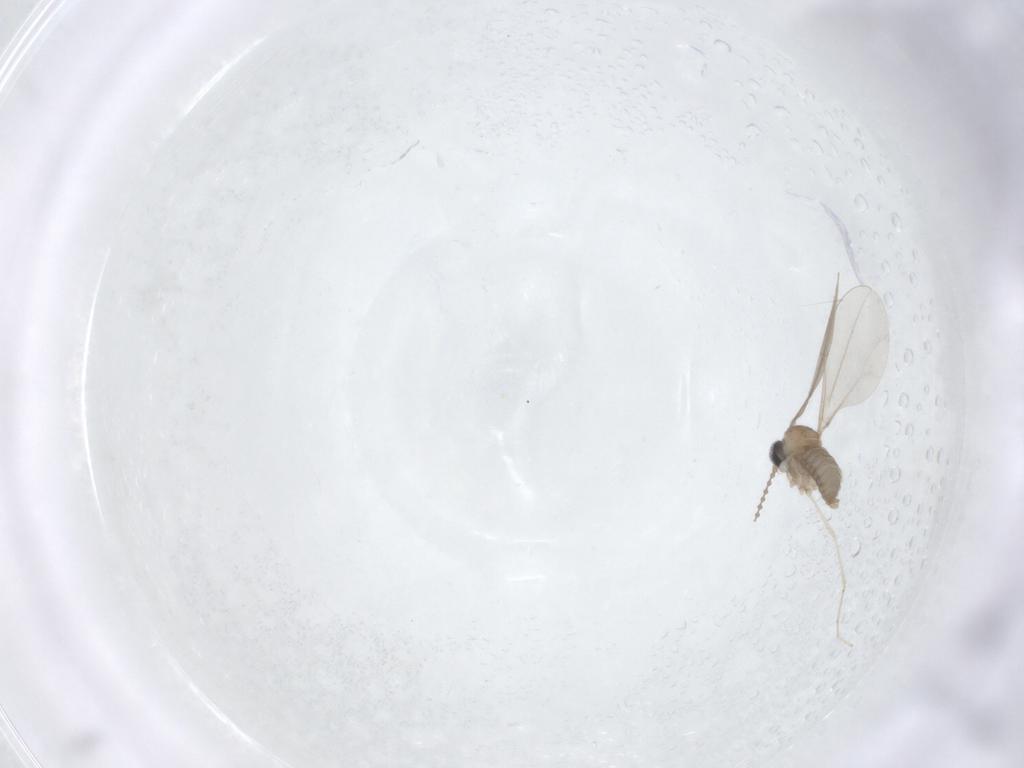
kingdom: Animalia
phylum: Arthropoda
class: Insecta
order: Diptera
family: Cecidomyiidae
